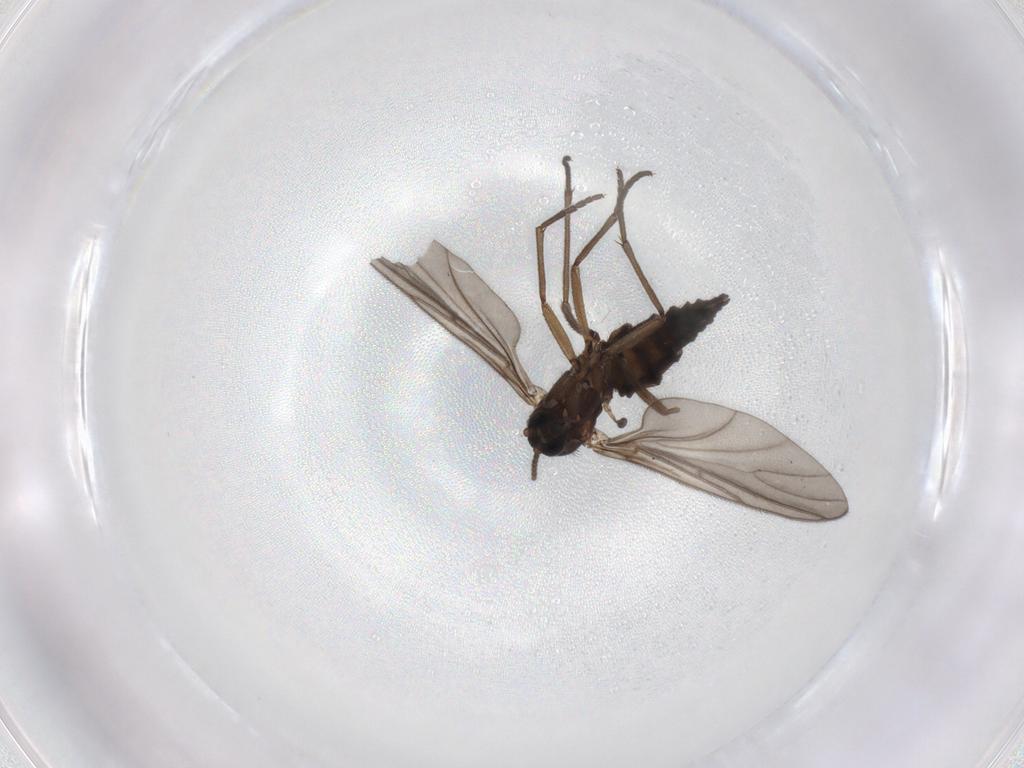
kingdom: Animalia
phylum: Arthropoda
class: Insecta
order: Diptera
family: Sciaridae
